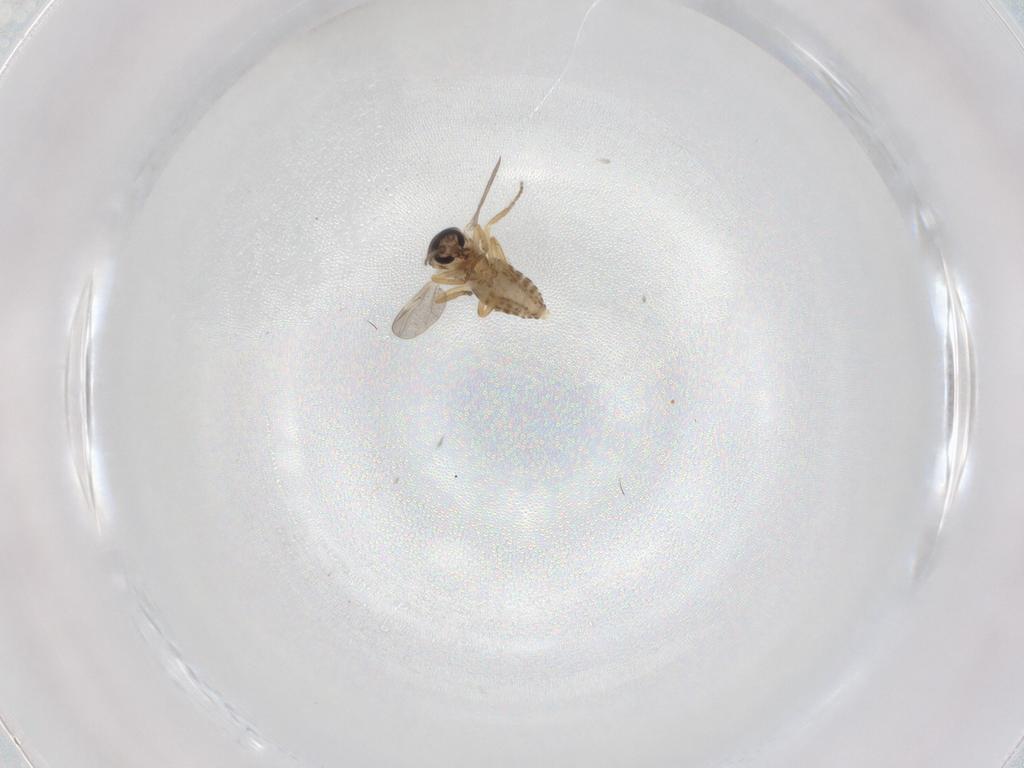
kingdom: Animalia
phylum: Arthropoda
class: Insecta
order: Diptera
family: Ceratopogonidae
